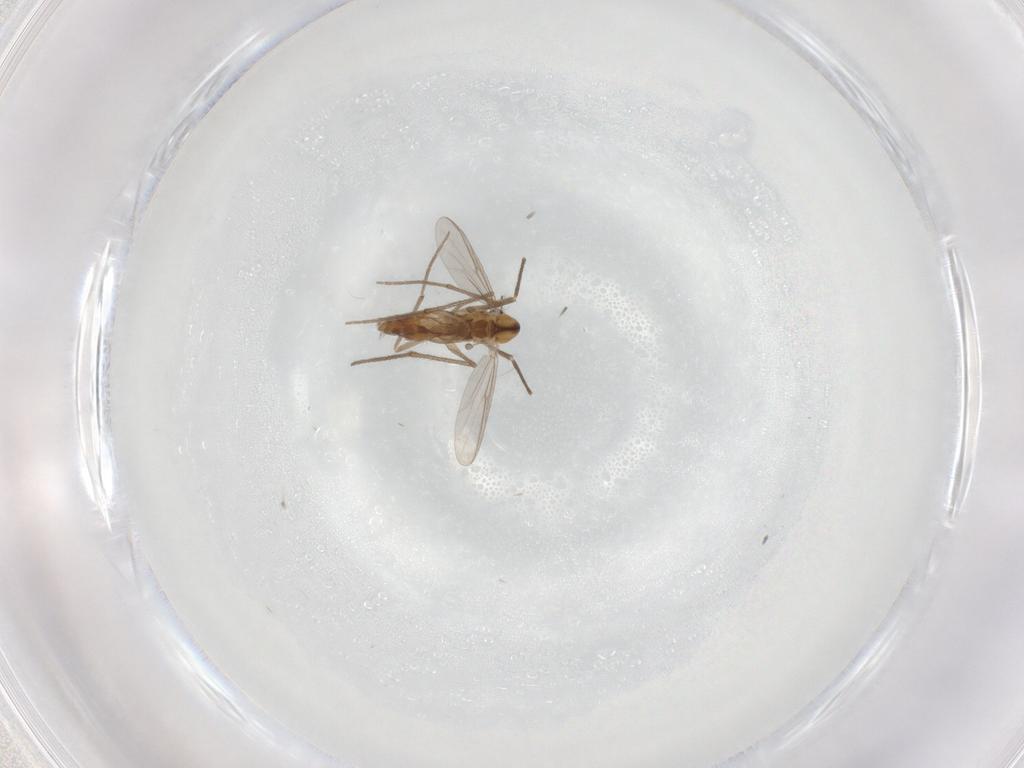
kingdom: Animalia
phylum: Arthropoda
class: Insecta
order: Diptera
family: Chironomidae
